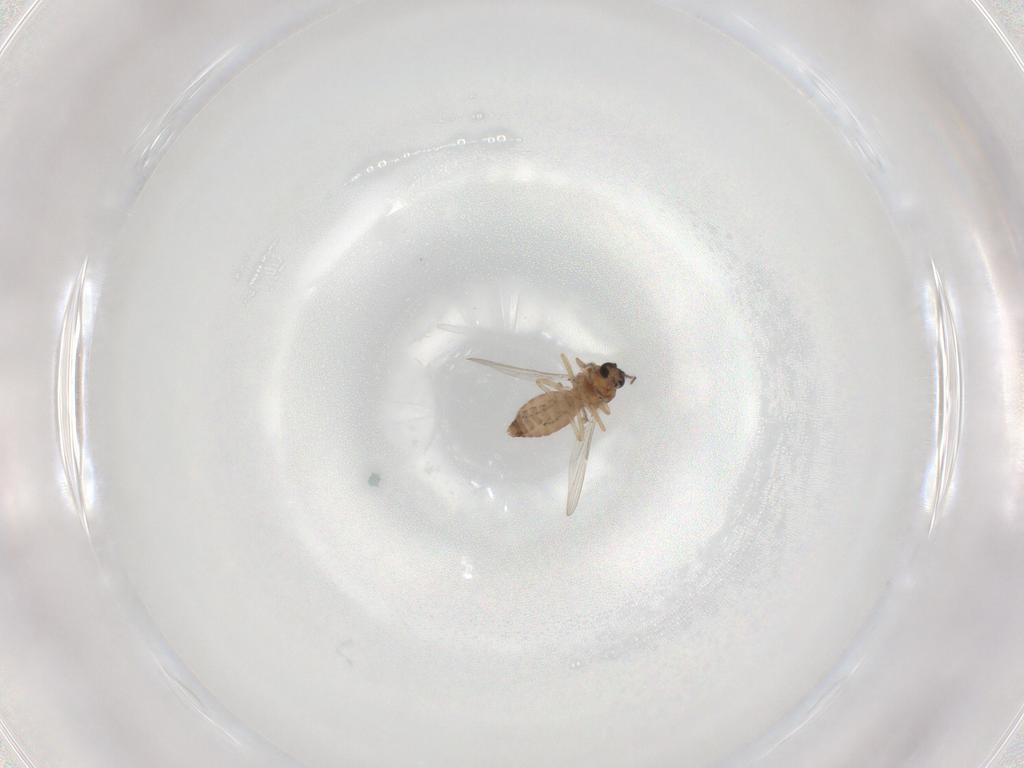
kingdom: Animalia
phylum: Arthropoda
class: Insecta
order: Diptera
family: Ceratopogonidae
